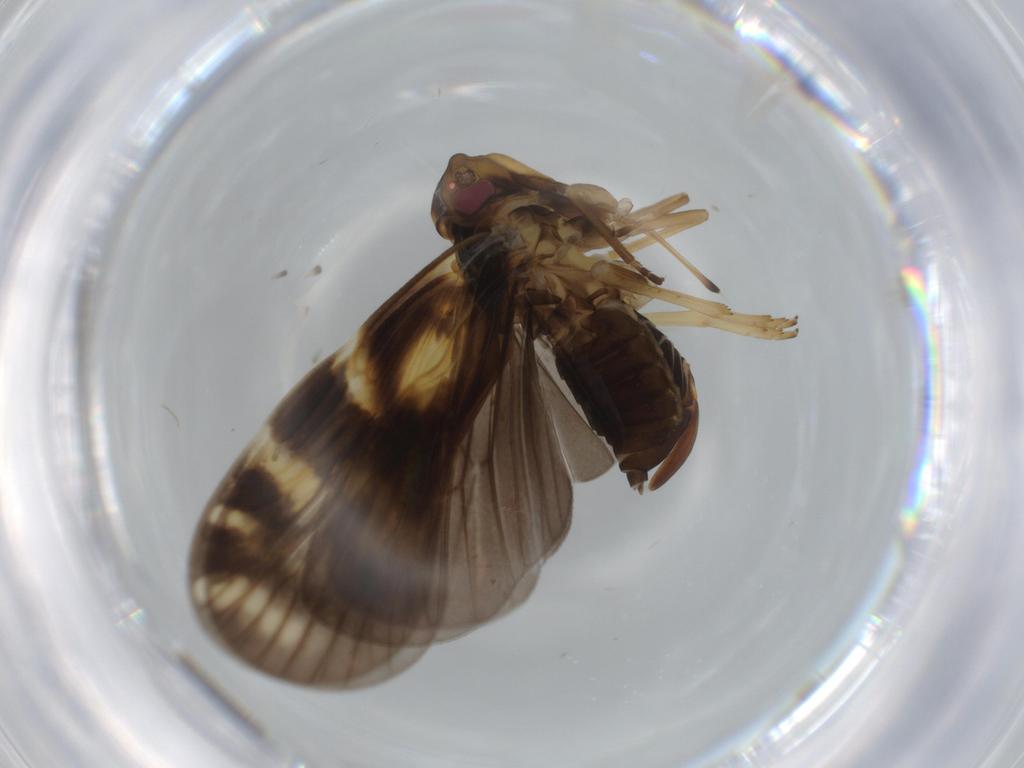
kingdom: Animalia
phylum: Arthropoda
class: Insecta
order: Hemiptera
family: Cixiidae
